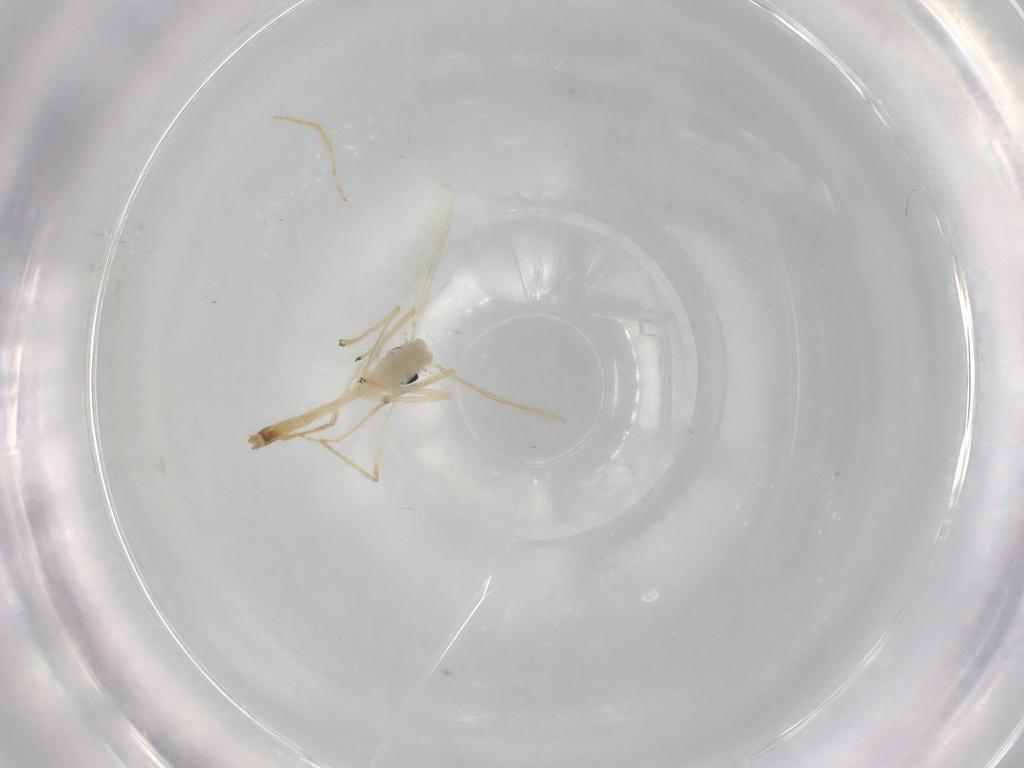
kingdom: Animalia
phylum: Arthropoda
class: Insecta
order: Diptera
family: Chironomidae
